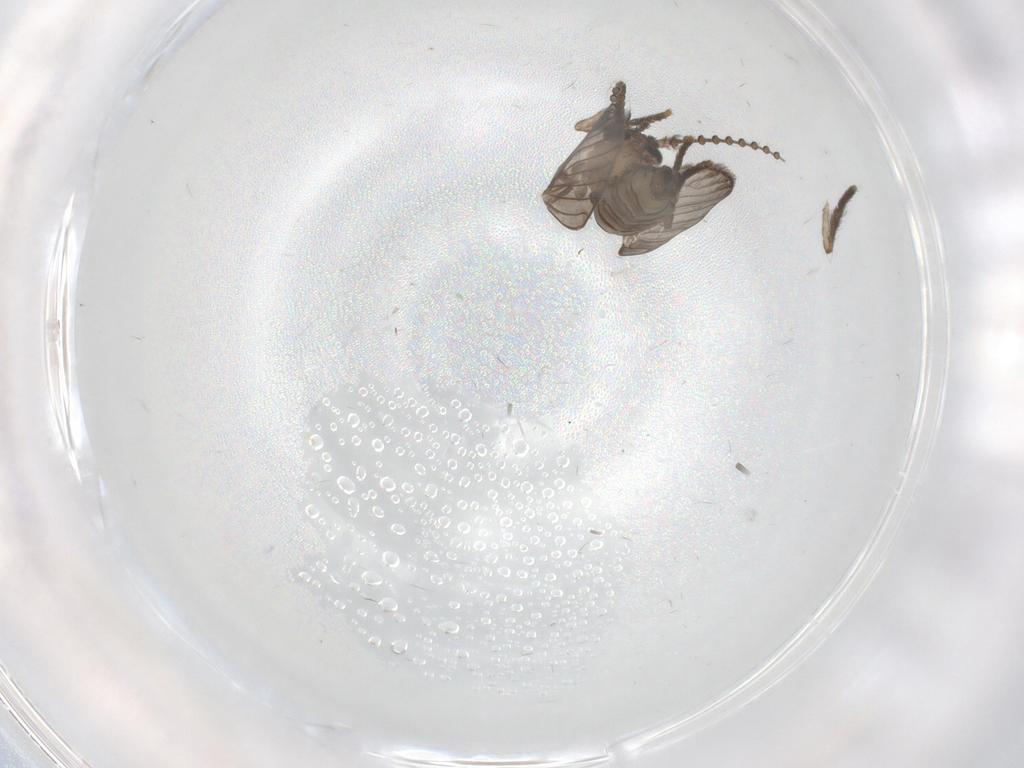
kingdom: Animalia
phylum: Arthropoda
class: Insecta
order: Diptera
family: Psychodidae
